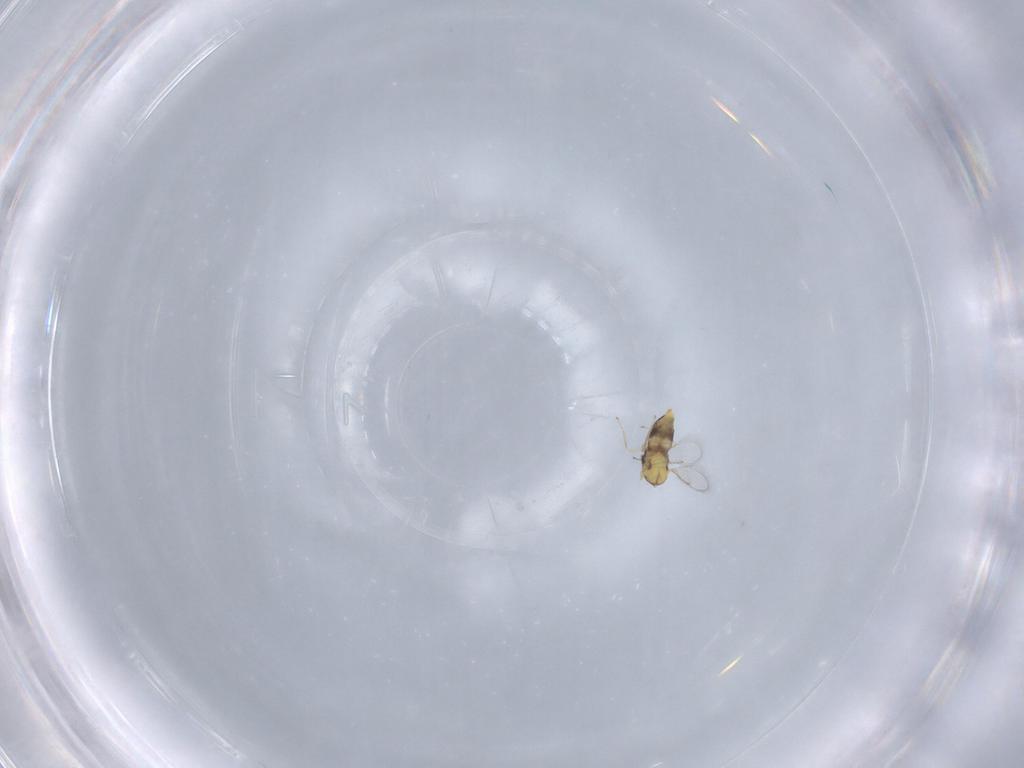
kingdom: Animalia
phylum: Arthropoda
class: Insecta
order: Hymenoptera
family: Aphelinidae
